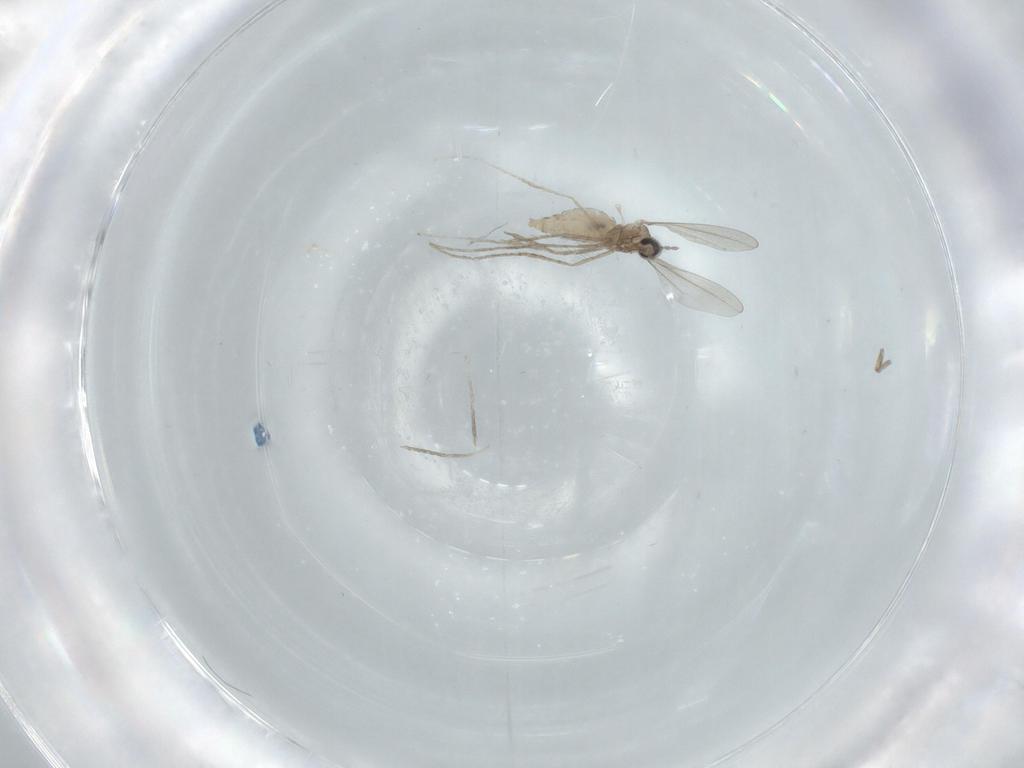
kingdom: Animalia
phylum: Arthropoda
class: Insecta
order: Diptera
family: Cecidomyiidae
